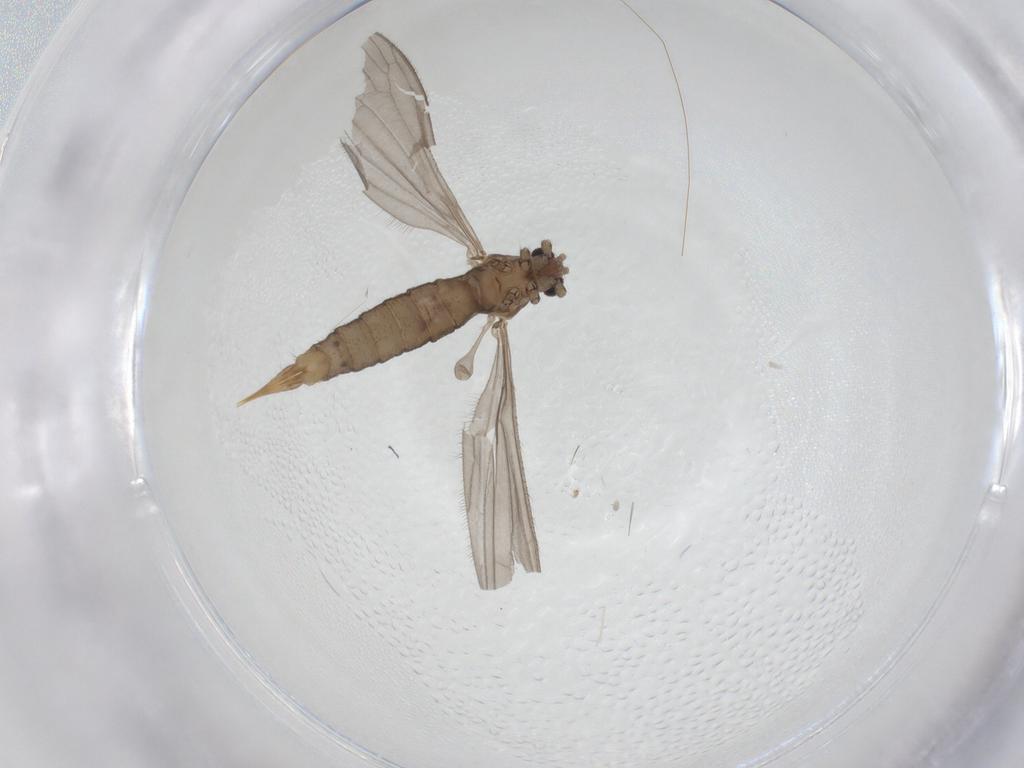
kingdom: Animalia
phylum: Arthropoda
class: Insecta
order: Diptera
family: Limoniidae
